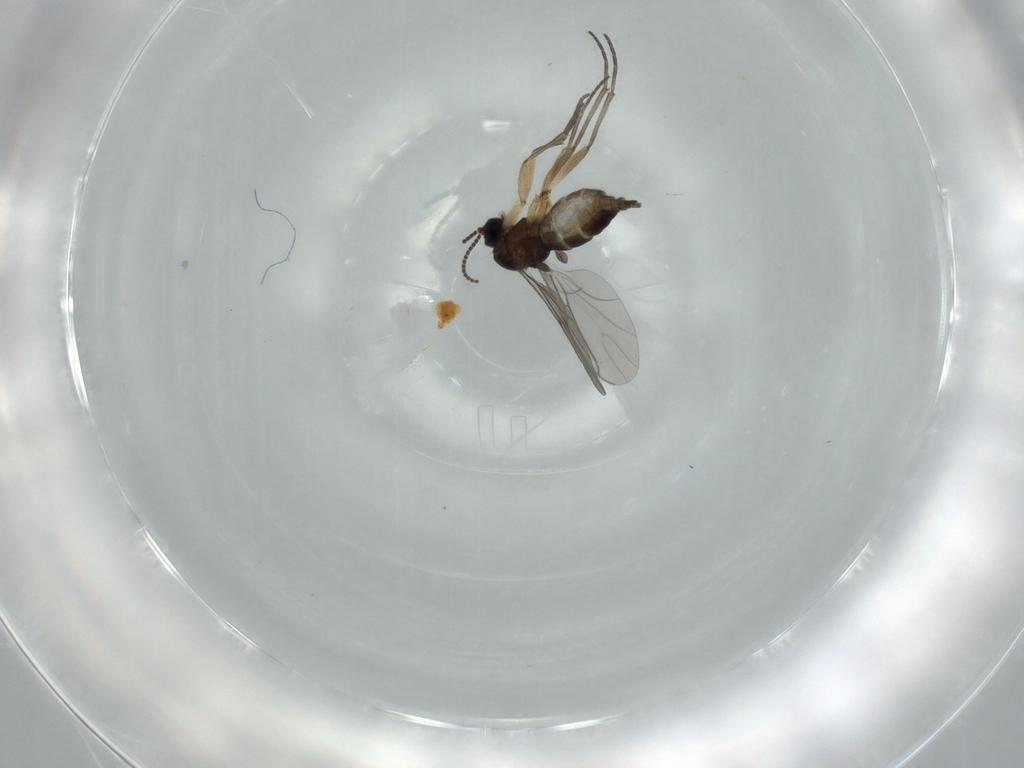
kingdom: Animalia
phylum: Arthropoda
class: Insecta
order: Diptera
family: Sciaridae
